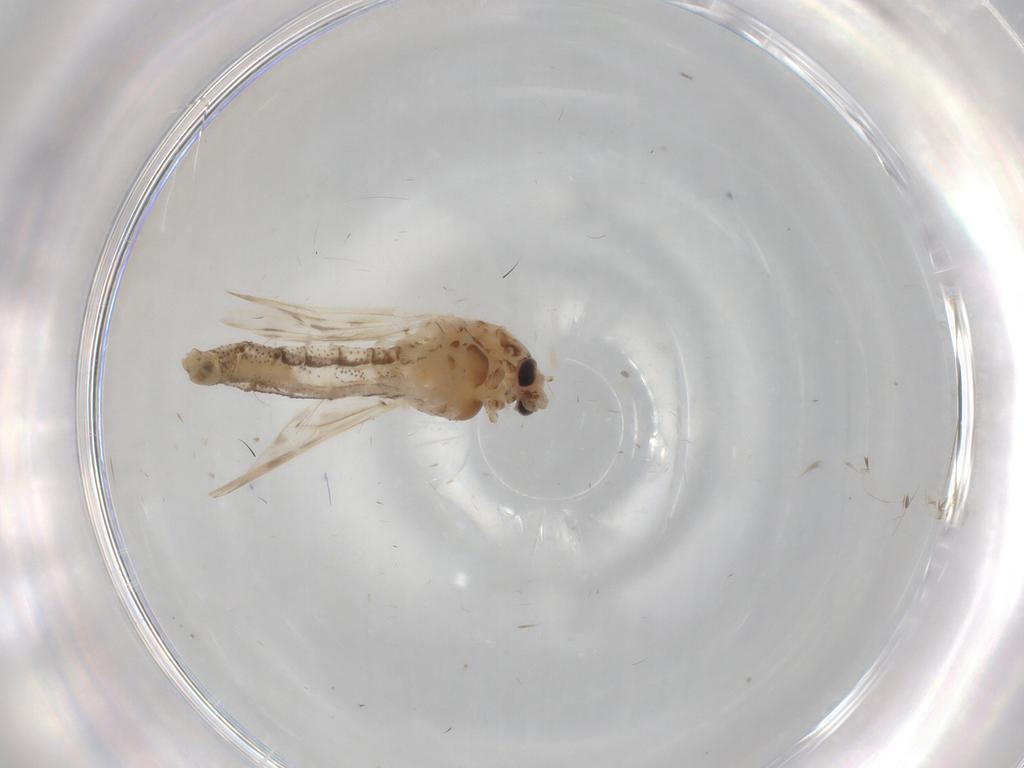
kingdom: Animalia
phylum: Arthropoda
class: Insecta
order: Diptera
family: Chaoboridae
